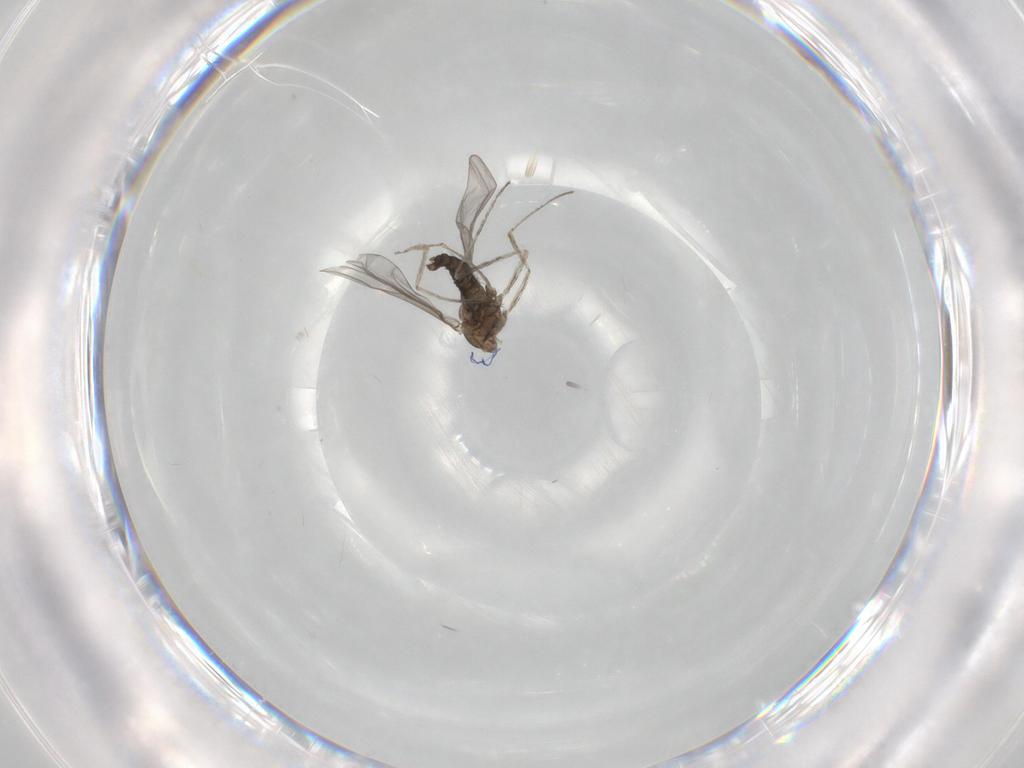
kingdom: Animalia
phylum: Arthropoda
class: Insecta
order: Diptera
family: Cecidomyiidae
